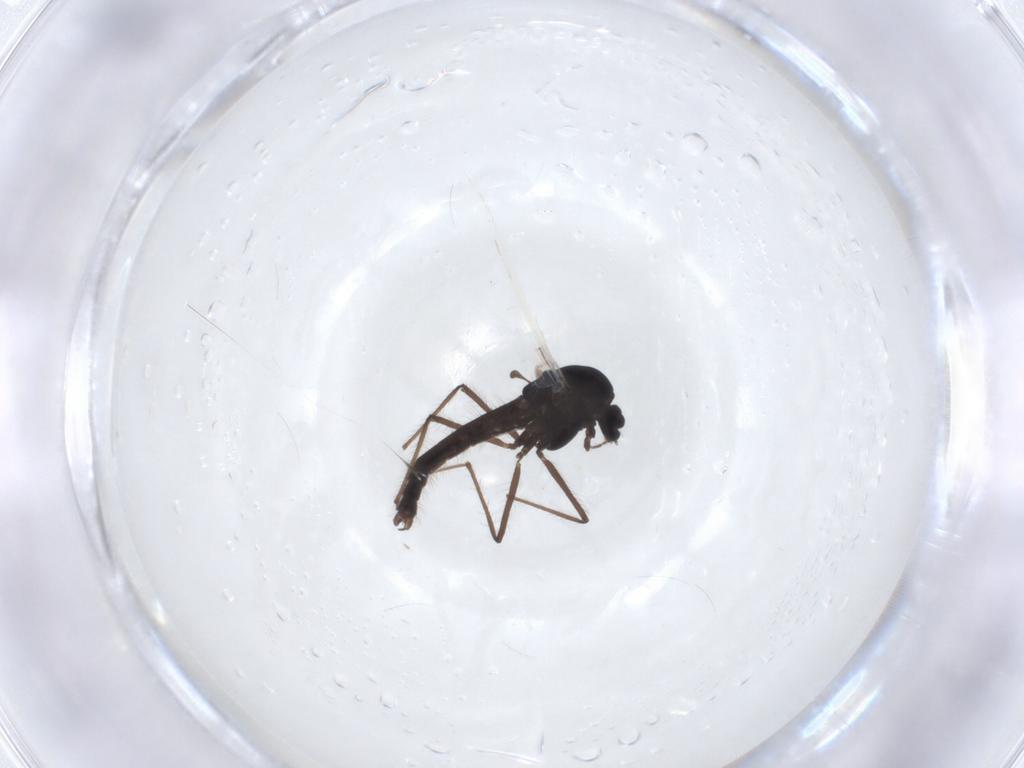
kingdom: Animalia
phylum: Arthropoda
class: Insecta
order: Diptera
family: Chironomidae
